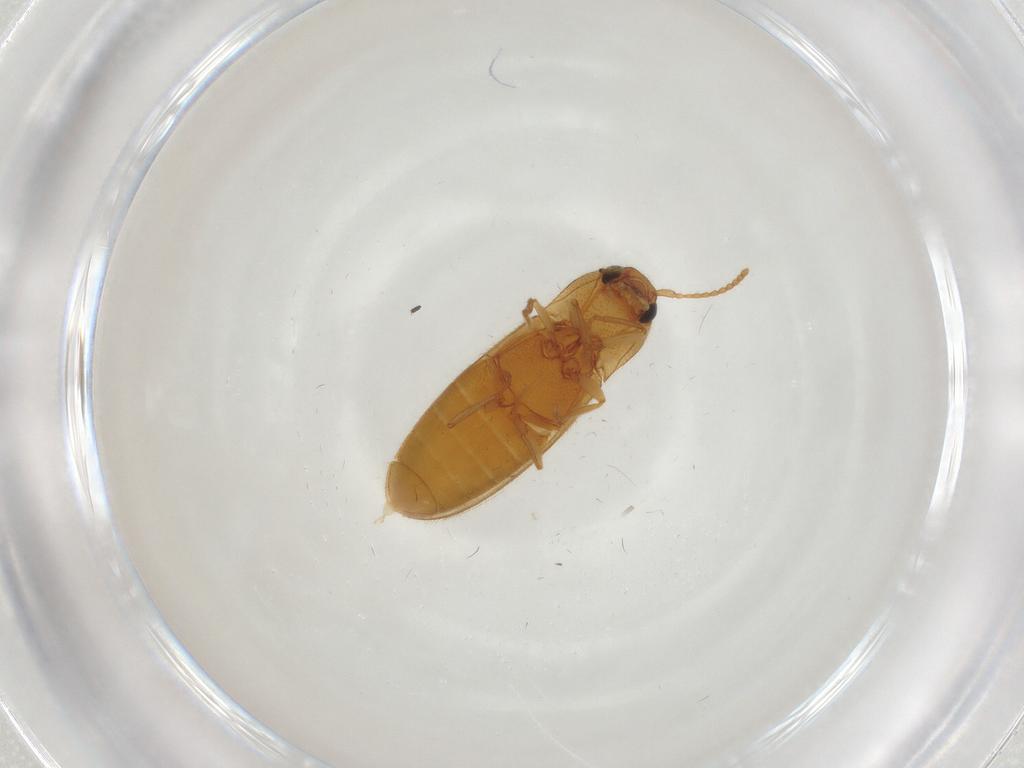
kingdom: Animalia
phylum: Arthropoda
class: Insecta
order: Coleoptera
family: Elateridae
